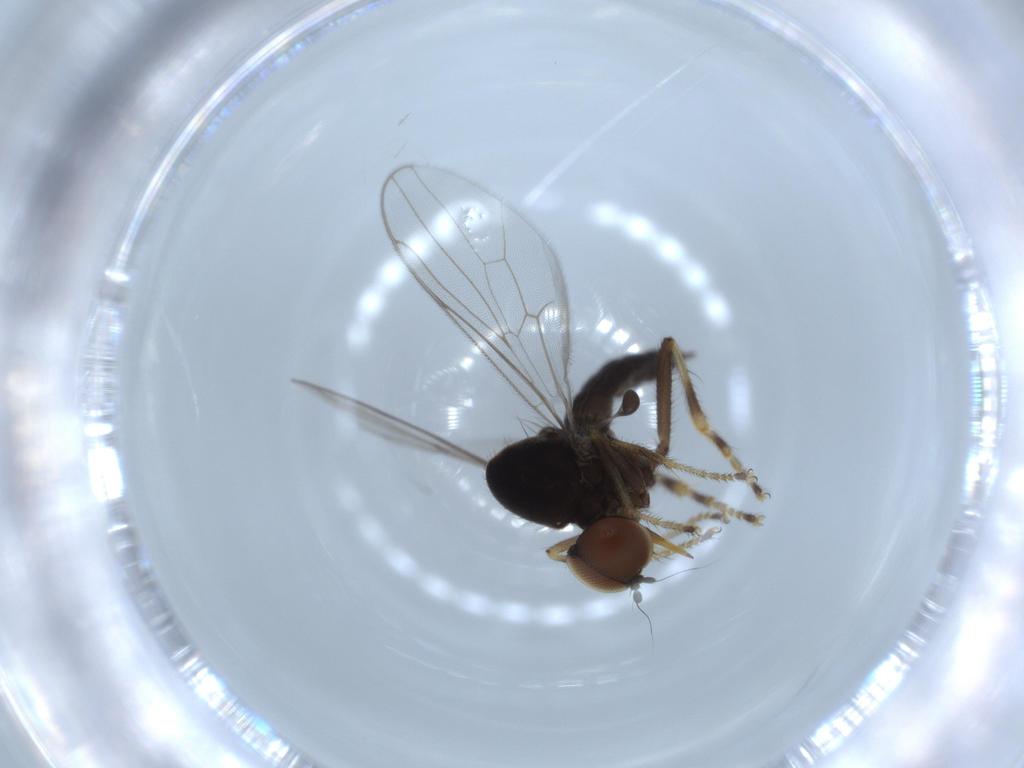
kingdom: Animalia
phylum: Arthropoda
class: Insecta
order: Diptera
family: Hybotidae
